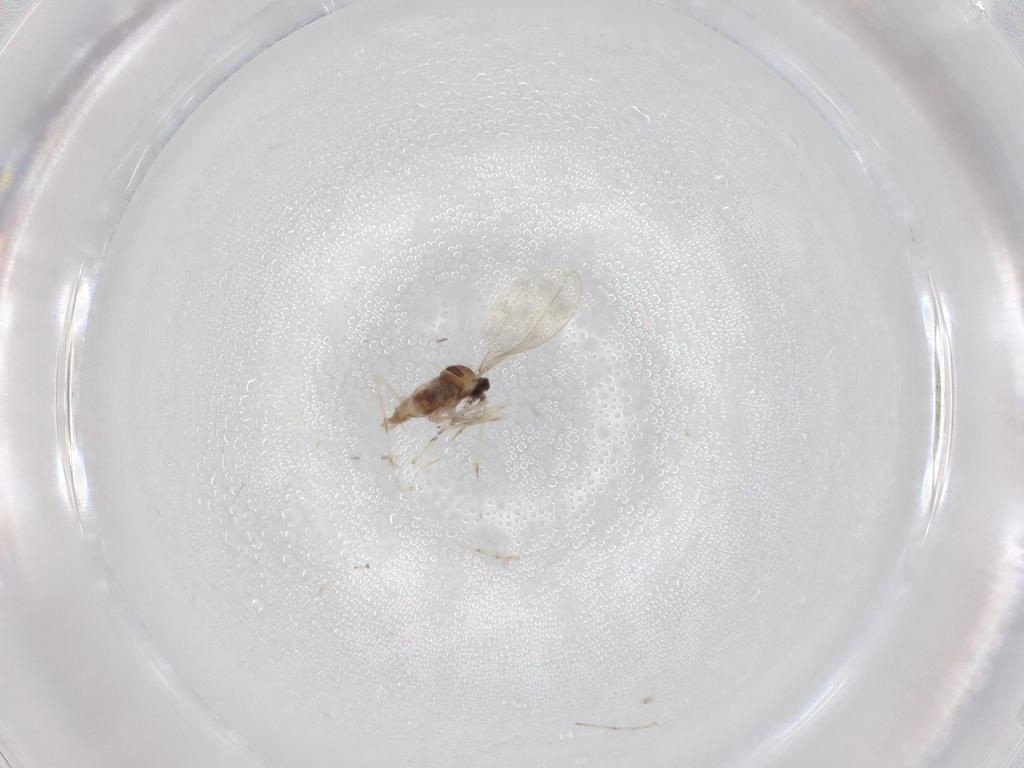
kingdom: Animalia
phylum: Arthropoda
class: Insecta
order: Diptera
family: Cecidomyiidae
